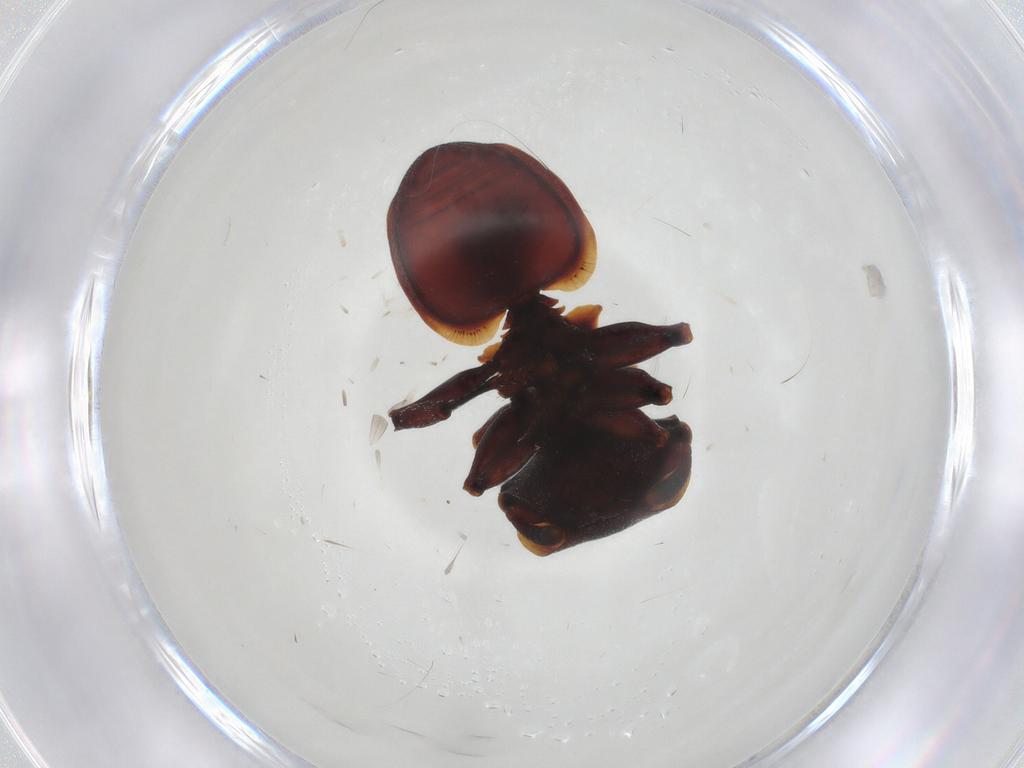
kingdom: Animalia
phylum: Arthropoda
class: Insecta
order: Hymenoptera
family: Formicidae
